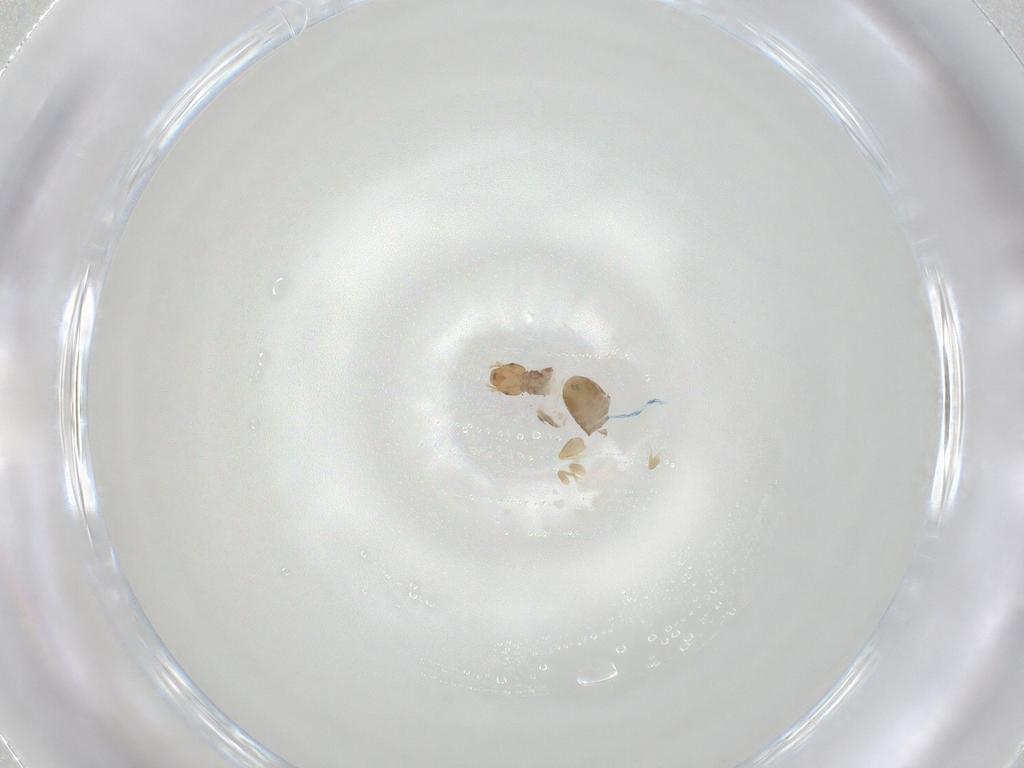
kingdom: Animalia
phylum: Arthropoda
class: Insecta
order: Psocodea
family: Liposcelididae
